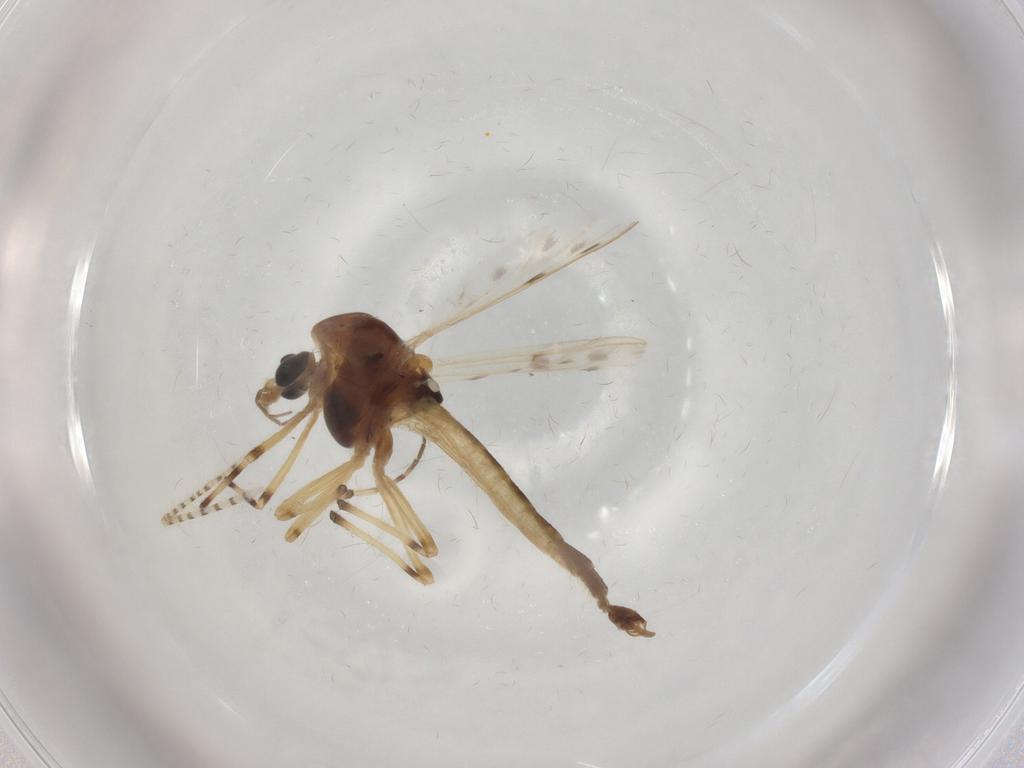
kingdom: Animalia
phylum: Arthropoda
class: Insecta
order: Diptera
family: Chironomidae
